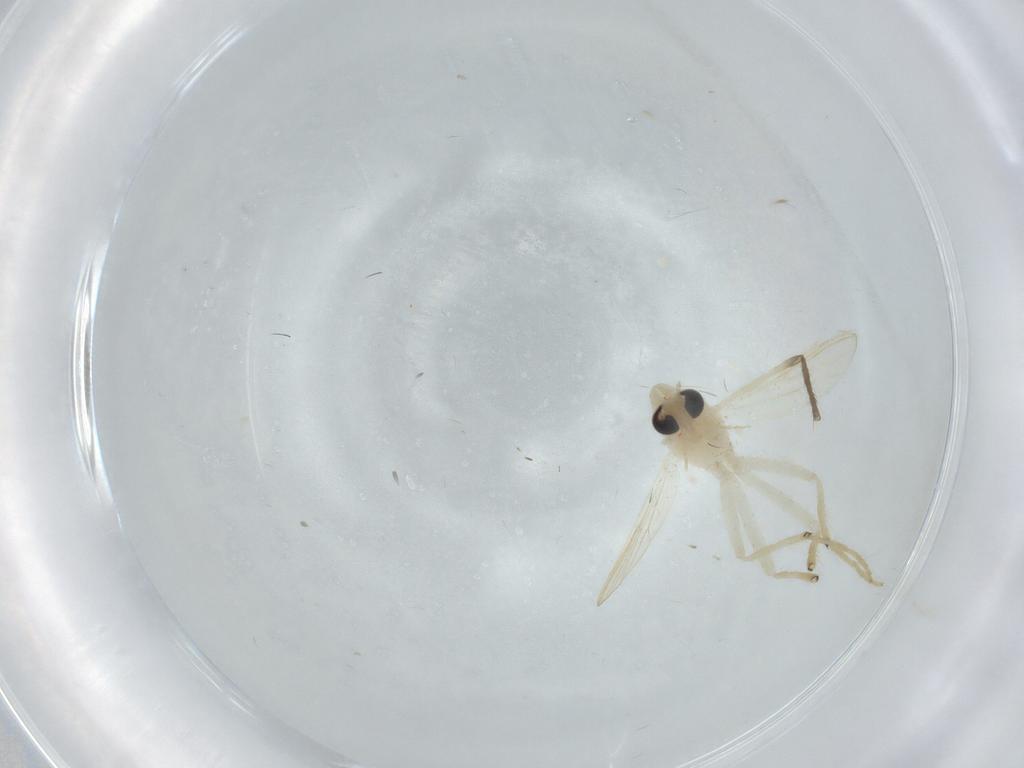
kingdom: Animalia
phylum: Arthropoda
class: Insecta
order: Diptera
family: Chironomidae
